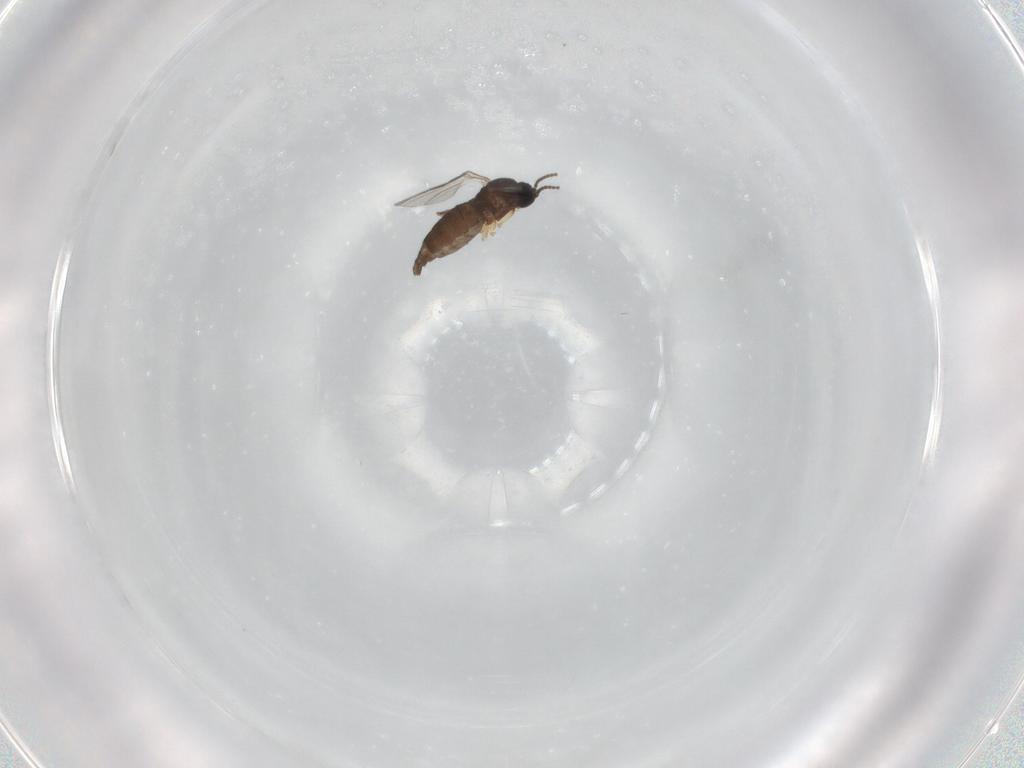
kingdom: Animalia
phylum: Arthropoda
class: Insecta
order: Diptera
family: Sciaridae
